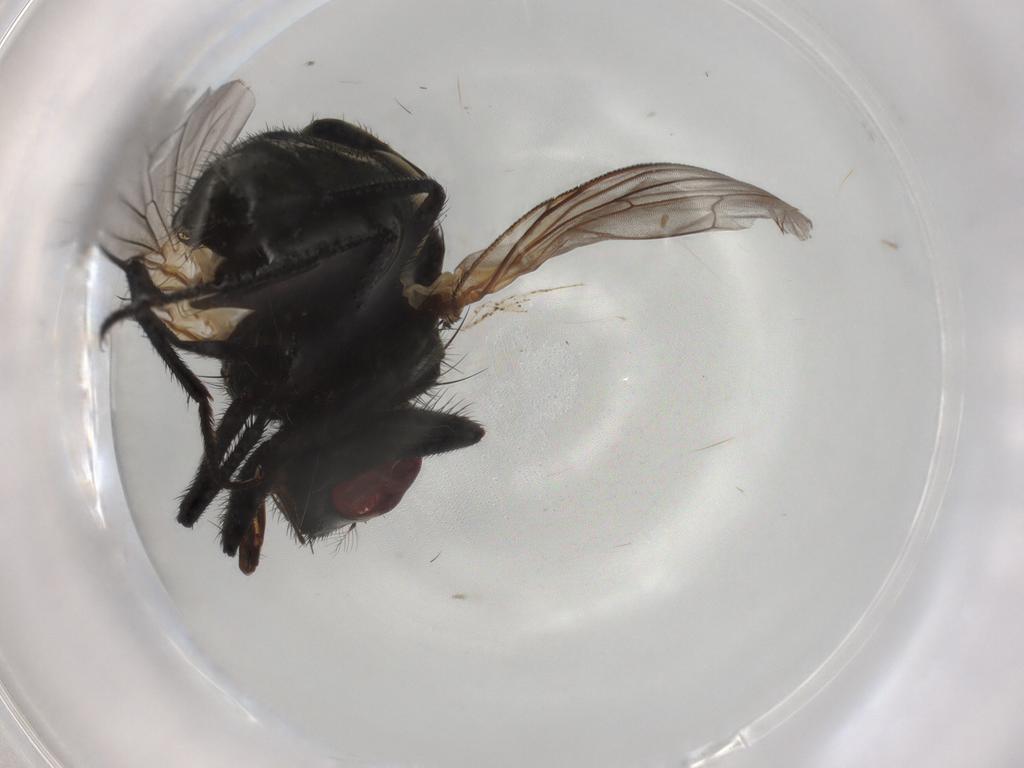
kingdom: Animalia
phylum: Arthropoda
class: Insecta
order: Diptera
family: Muscidae
